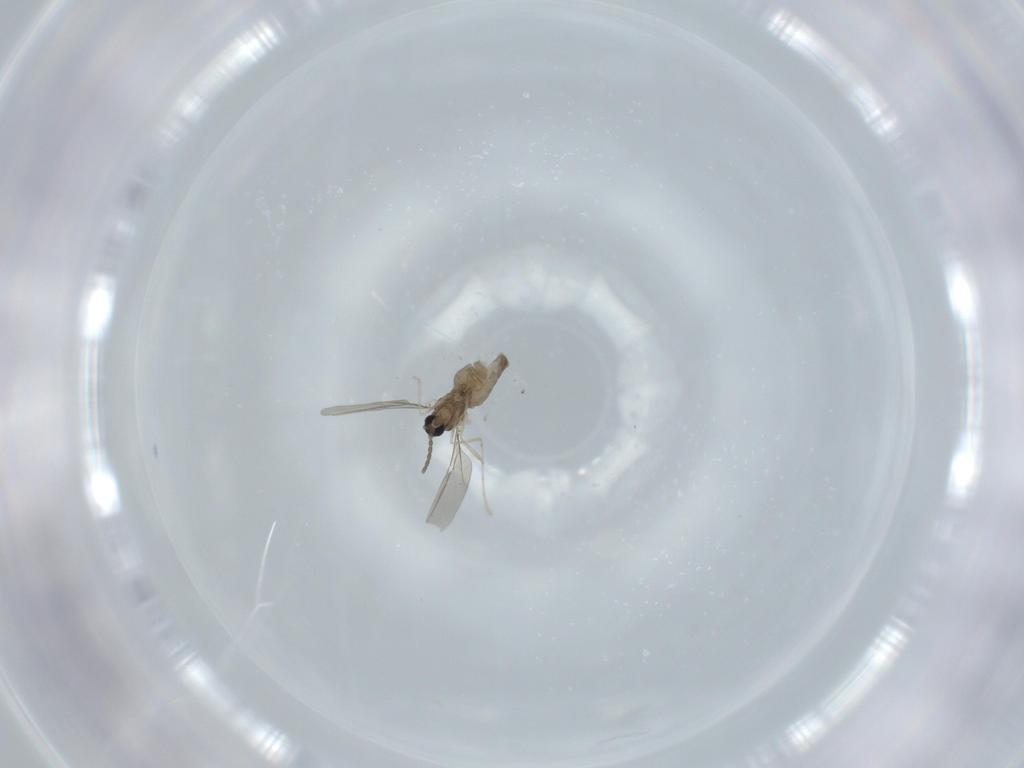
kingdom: Animalia
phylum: Arthropoda
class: Insecta
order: Diptera
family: Cecidomyiidae
